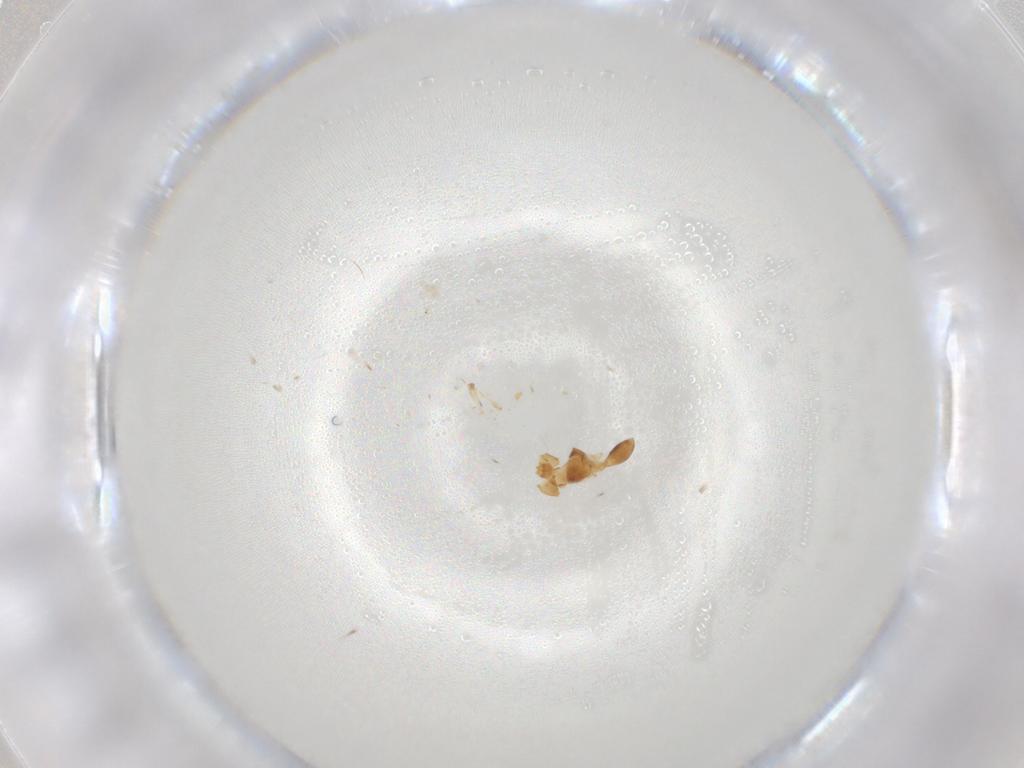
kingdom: Animalia
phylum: Arthropoda
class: Insecta
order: Hymenoptera
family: Platygastridae
